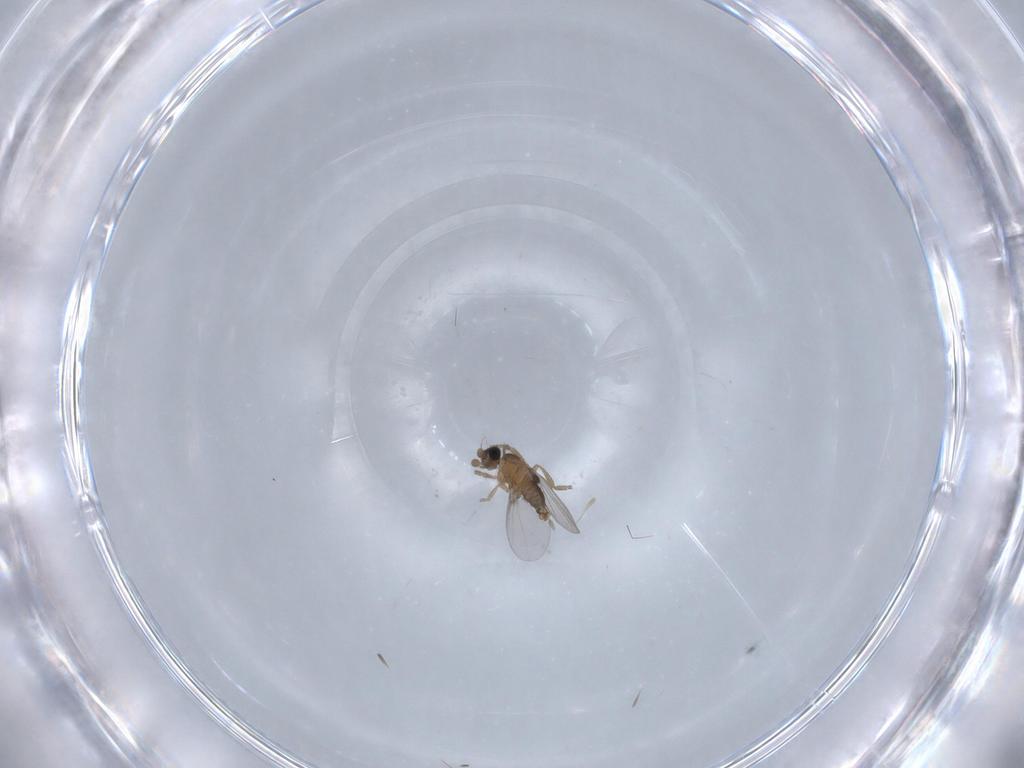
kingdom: Animalia
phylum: Arthropoda
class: Insecta
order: Diptera
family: Phoridae
